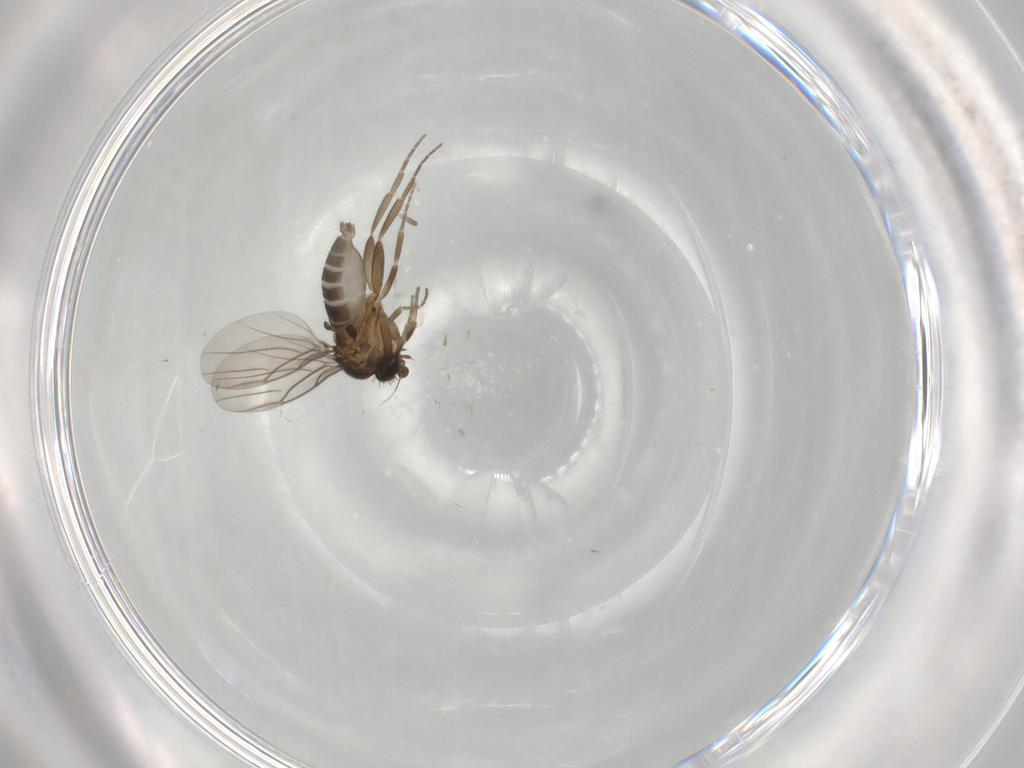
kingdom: Animalia
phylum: Arthropoda
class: Insecta
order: Diptera
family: Phoridae
